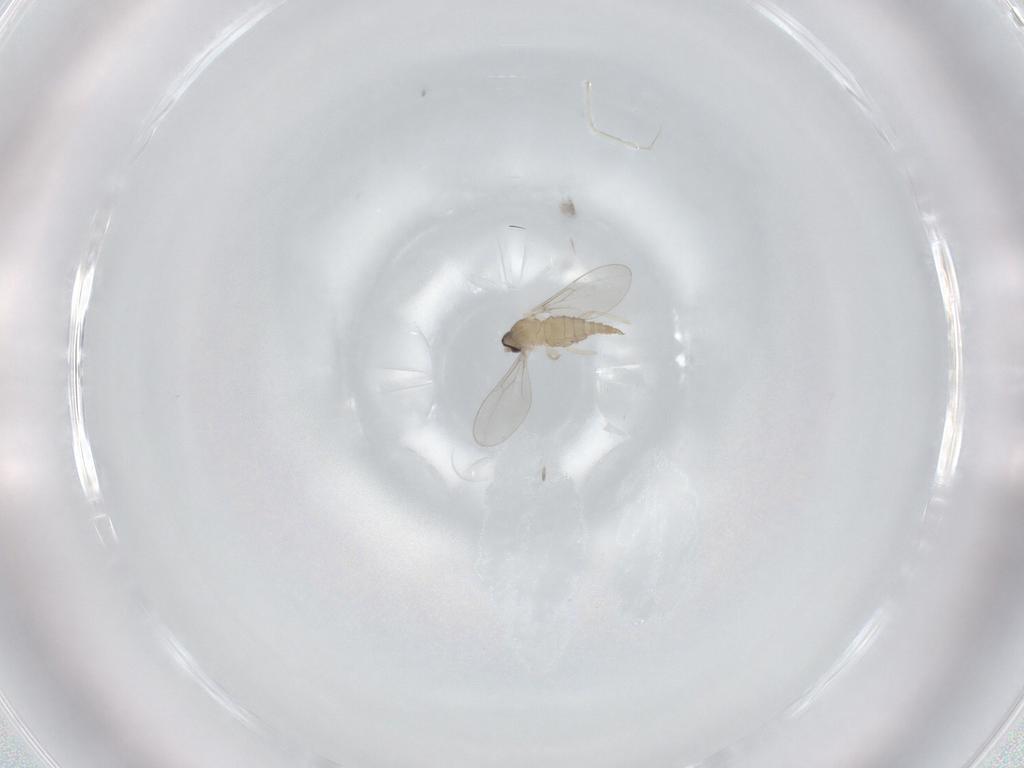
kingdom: Animalia
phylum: Arthropoda
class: Insecta
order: Diptera
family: Cecidomyiidae
